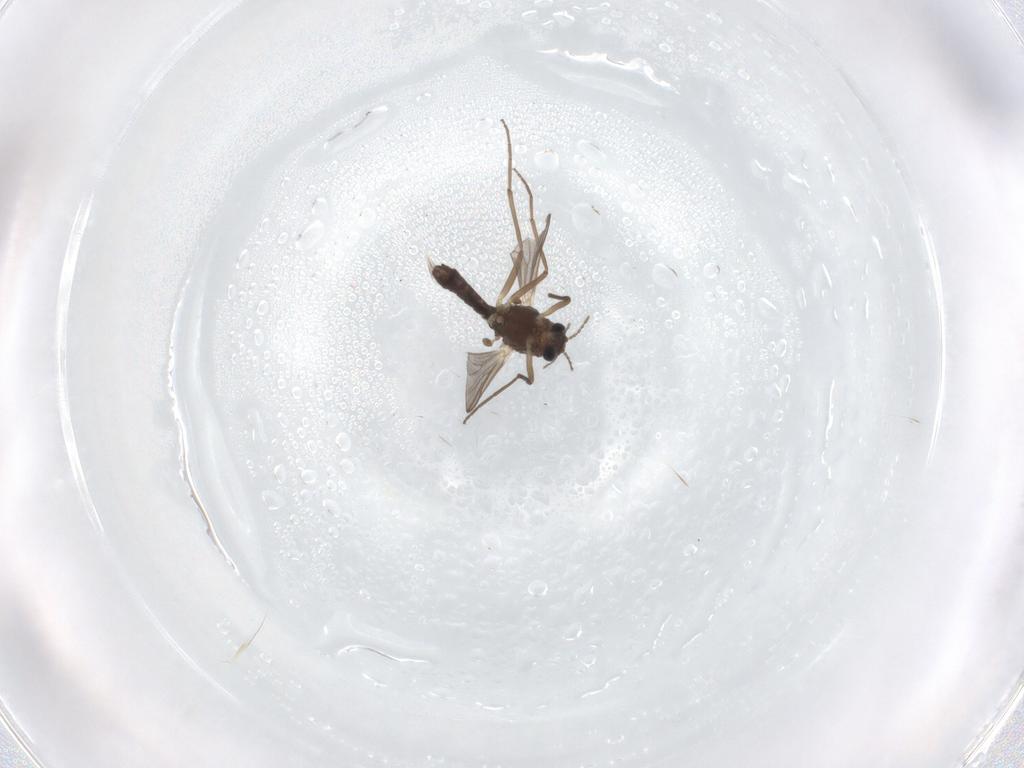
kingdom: Animalia
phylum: Arthropoda
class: Insecta
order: Diptera
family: Chironomidae
